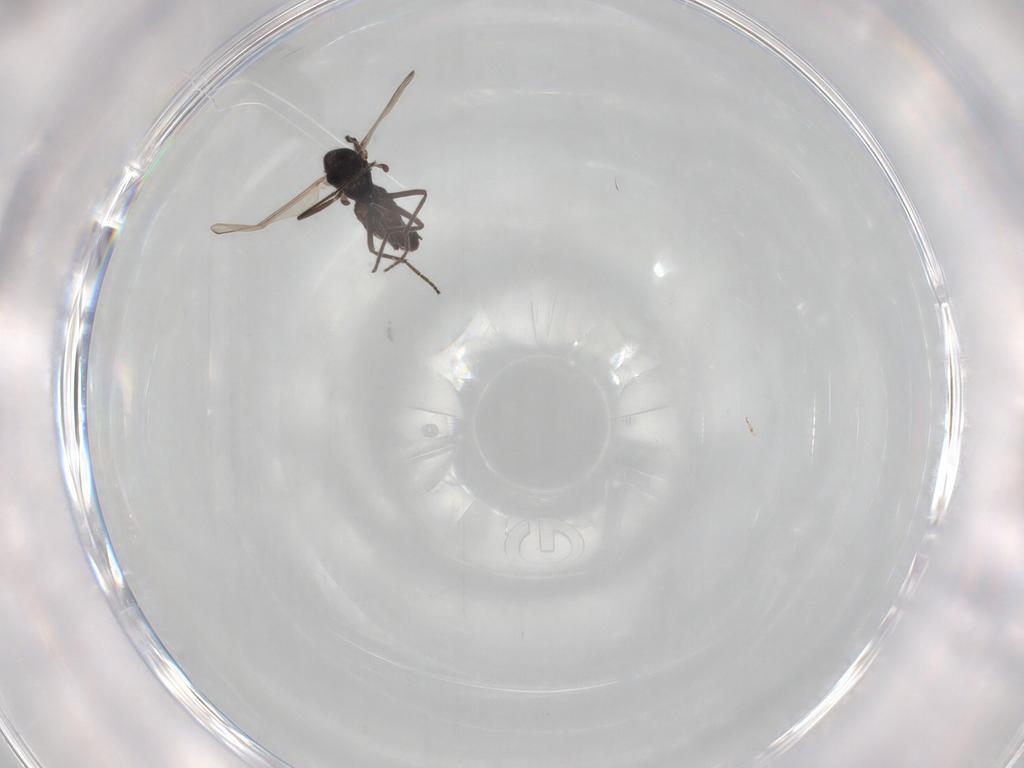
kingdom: Animalia
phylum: Arthropoda
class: Insecta
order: Diptera
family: Chironomidae
